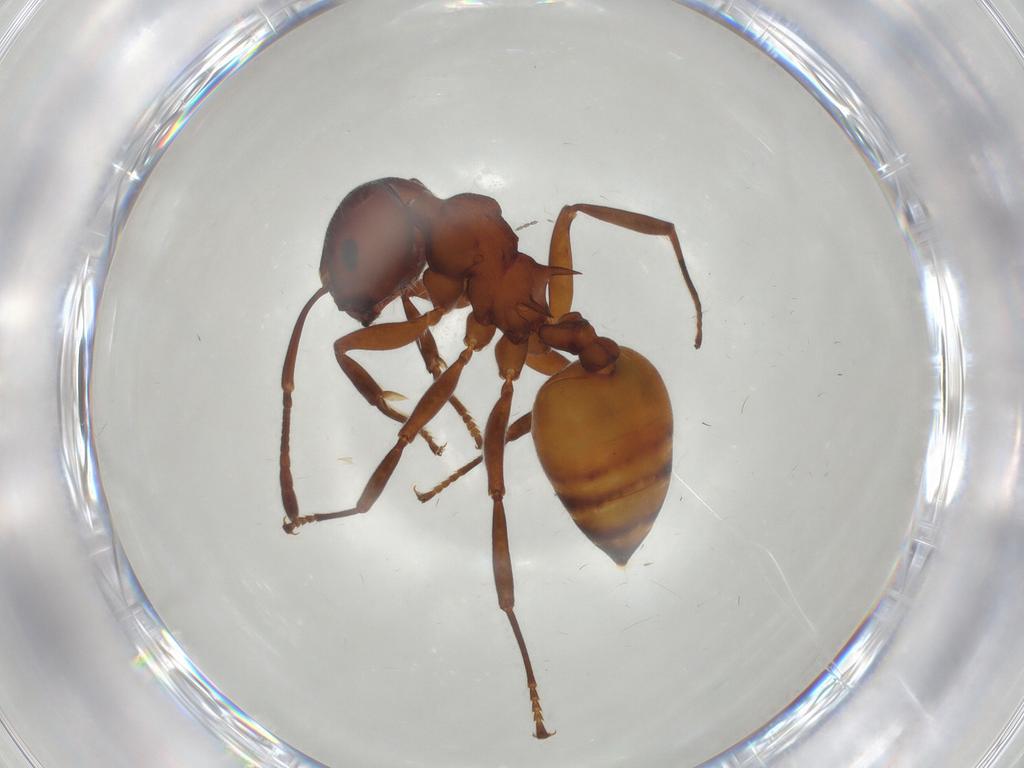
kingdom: Animalia
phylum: Arthropoda
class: Insecta
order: Hymenoptera
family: Formicidae
